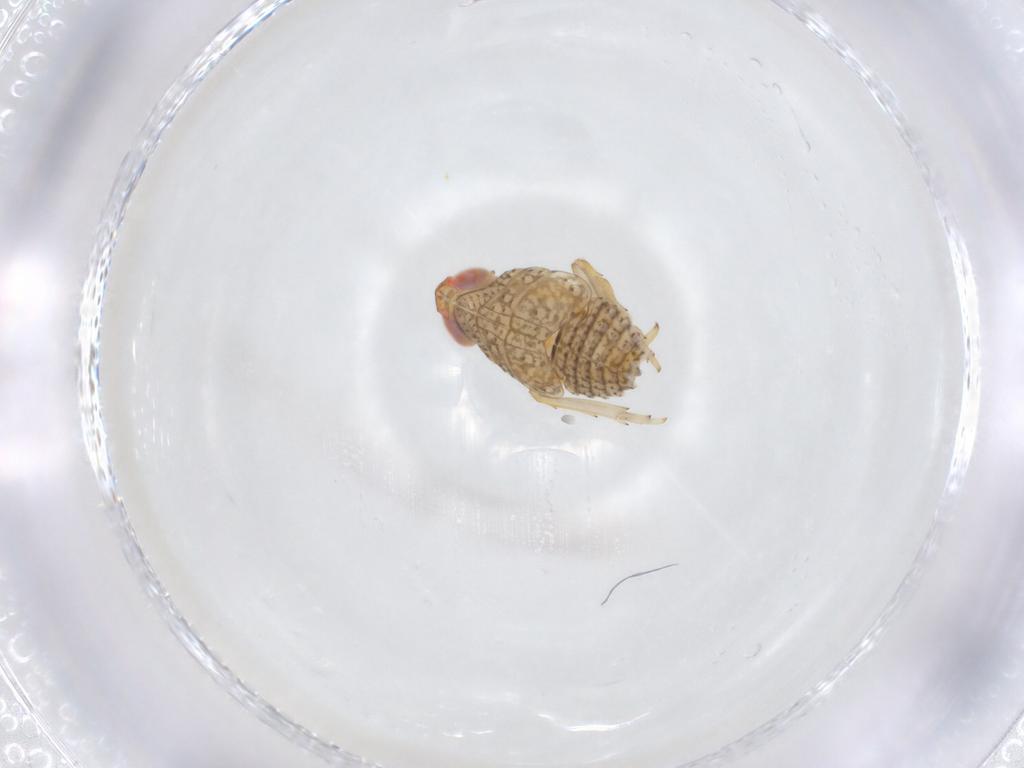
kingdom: Animalia
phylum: Arthropoda
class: Insecta
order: Hemiptera
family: Fulgoroidea_incertae_sedis
